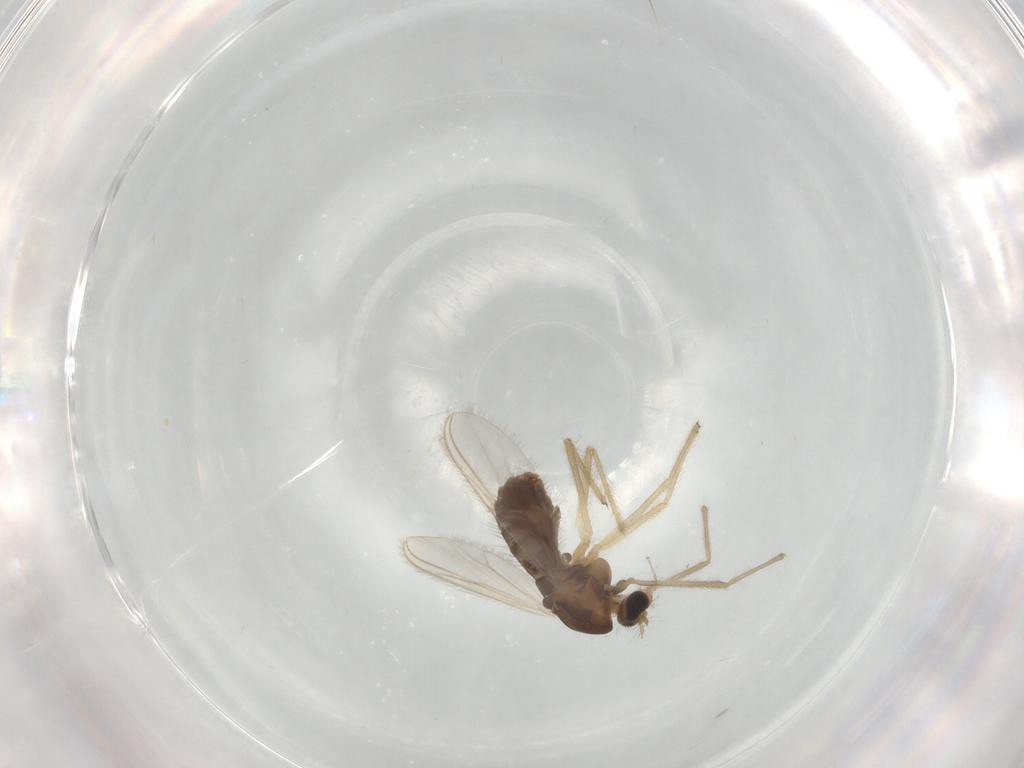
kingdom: Animalia
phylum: Arthropoda
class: Insecta
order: Diptera
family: Chironomidae
